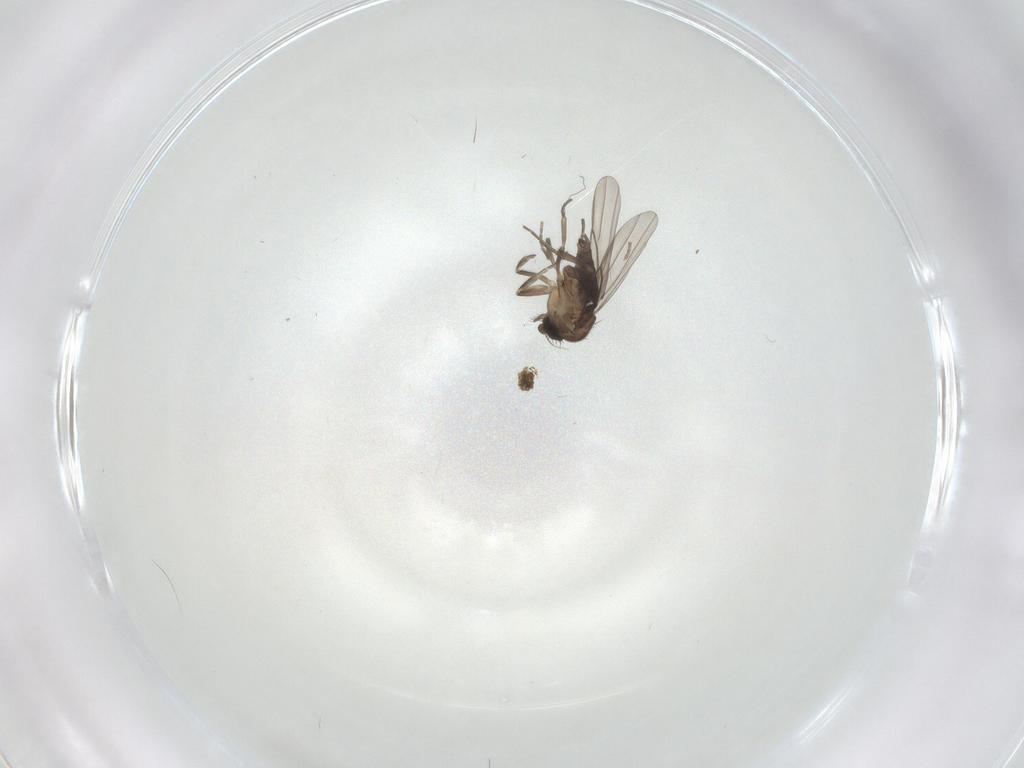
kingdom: Animalia
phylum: Arthropoda
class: Insecta
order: Diptera
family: Phoridae
